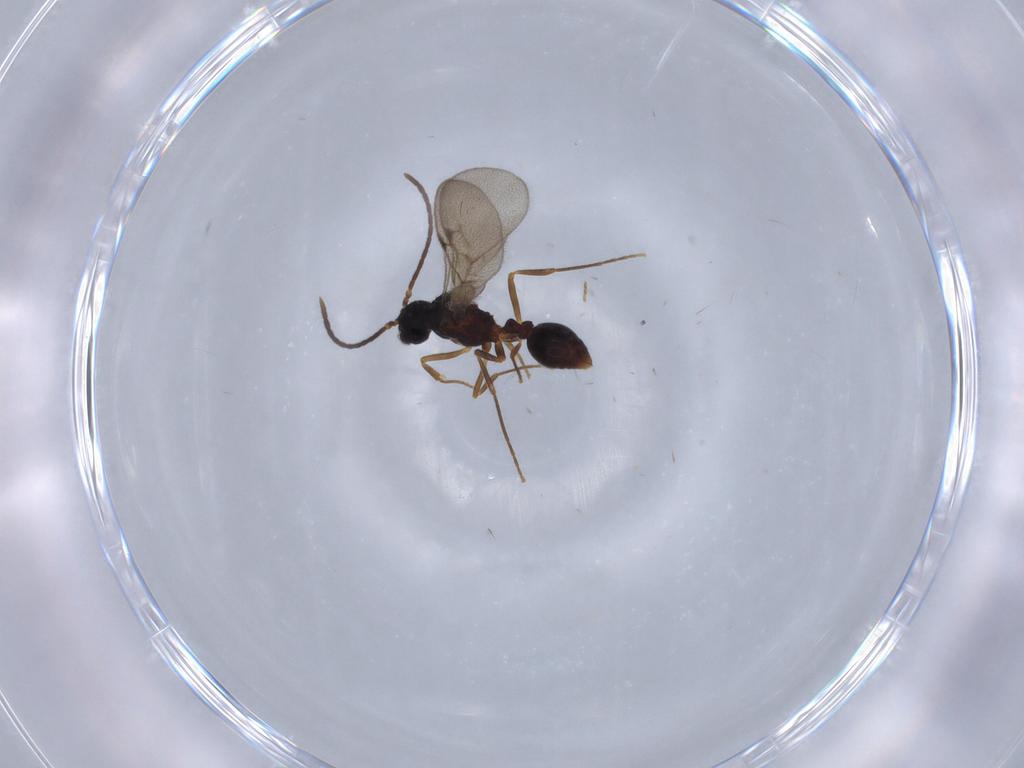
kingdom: Animalia
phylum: Arthropoda
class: Insecta
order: Hymenoptera
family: Formicidae
